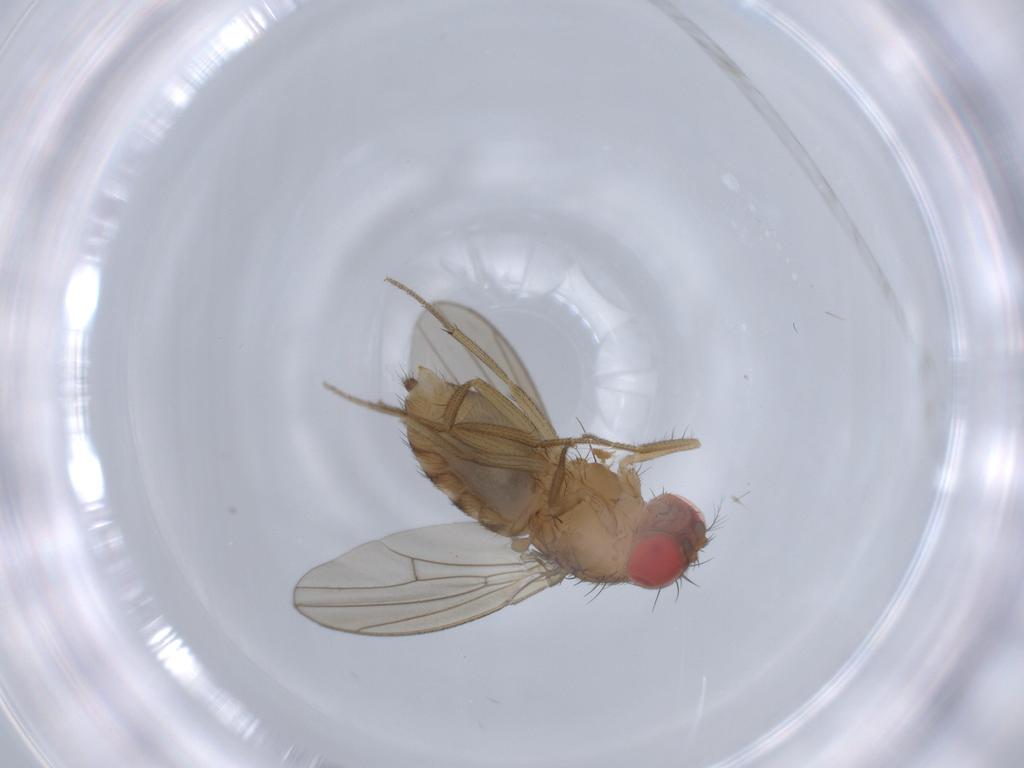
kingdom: Animalia
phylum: Arthropoda
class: Insecta
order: Diptera
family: Drosophilidae
